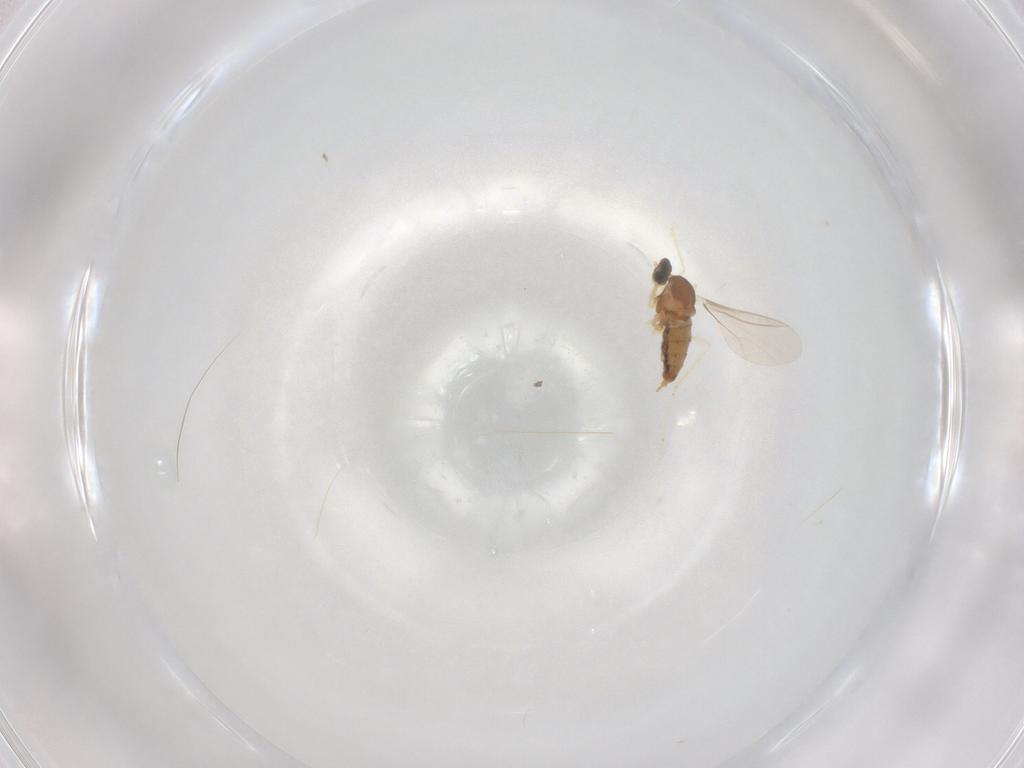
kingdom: Animalia
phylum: Arthropoda
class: Insecta
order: Diptera
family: Cecidomyiidae
